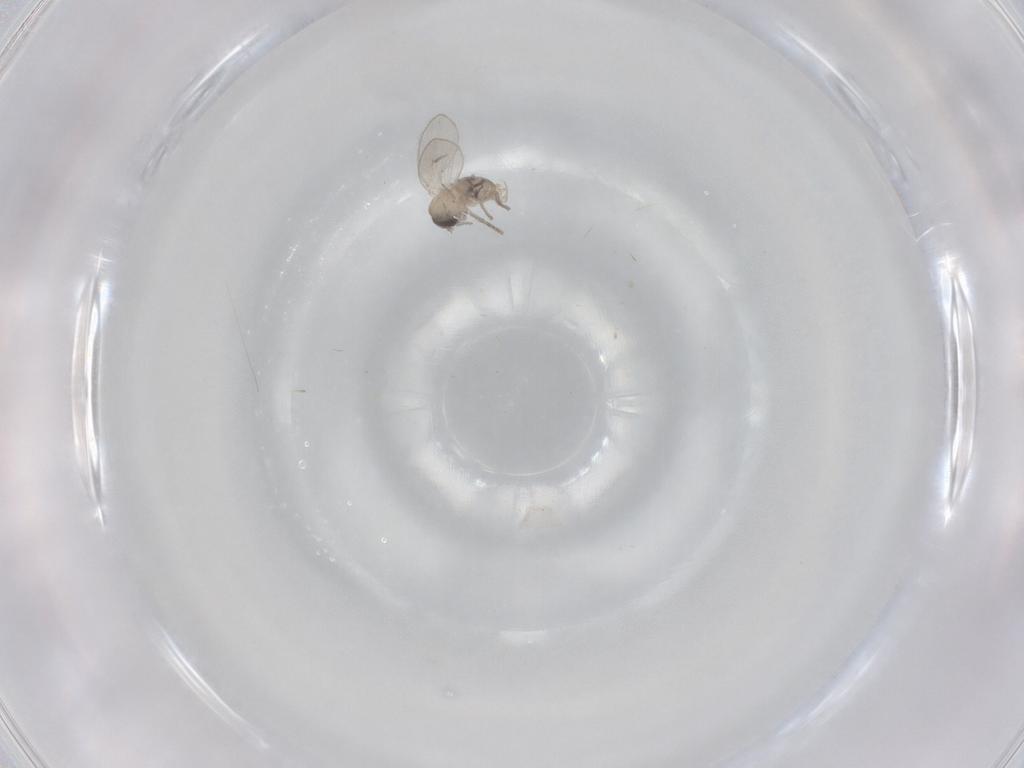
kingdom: Animalia
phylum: Arthropoda
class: Insecta
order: Diptera
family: Psychodidae
